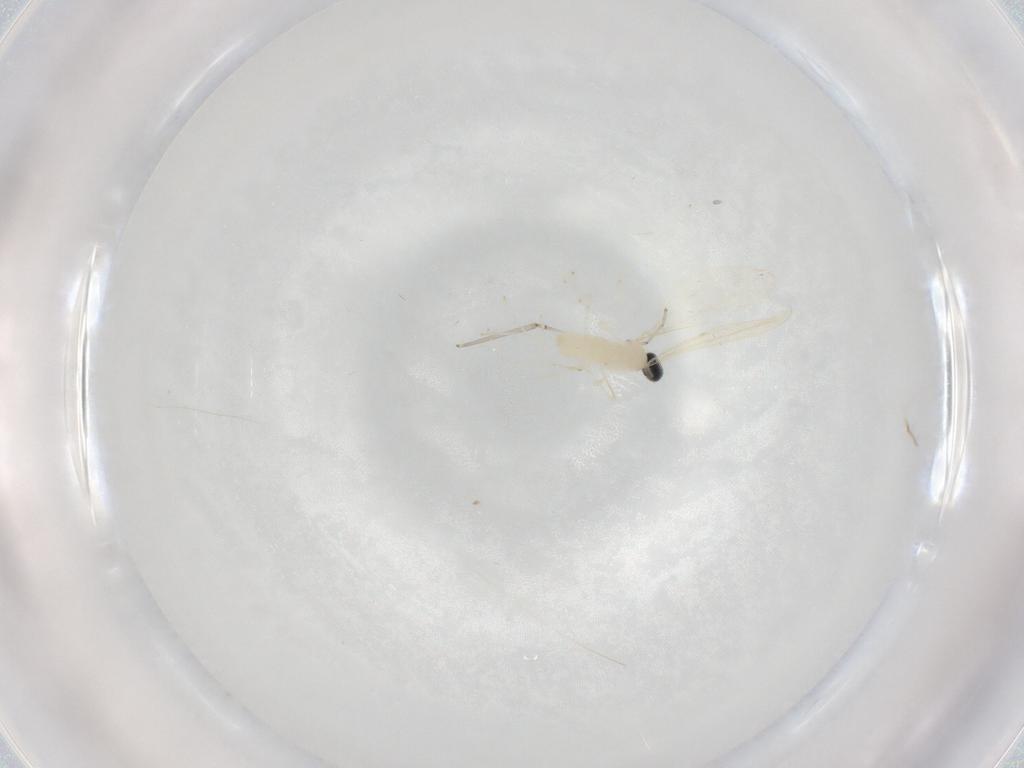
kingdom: Animalia
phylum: Arthropoda
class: Insecta
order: Diptera
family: Cecidomyiidae
